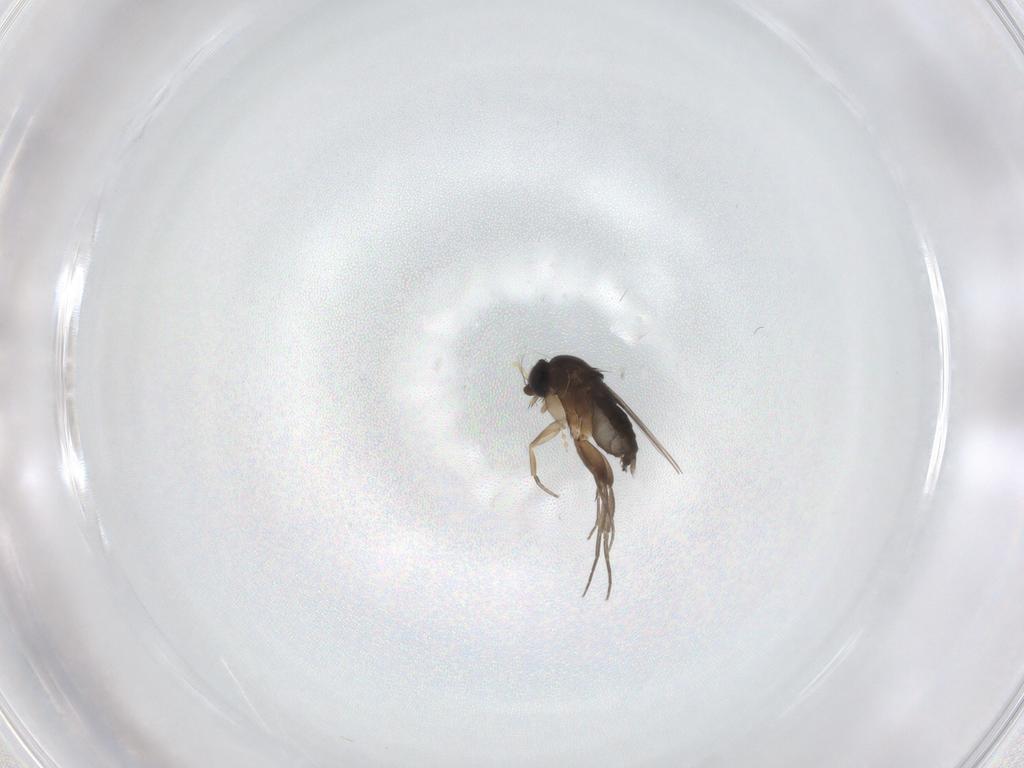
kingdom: Animalia
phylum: Arthropoda
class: Insecta
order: Diptera
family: Phoridae
